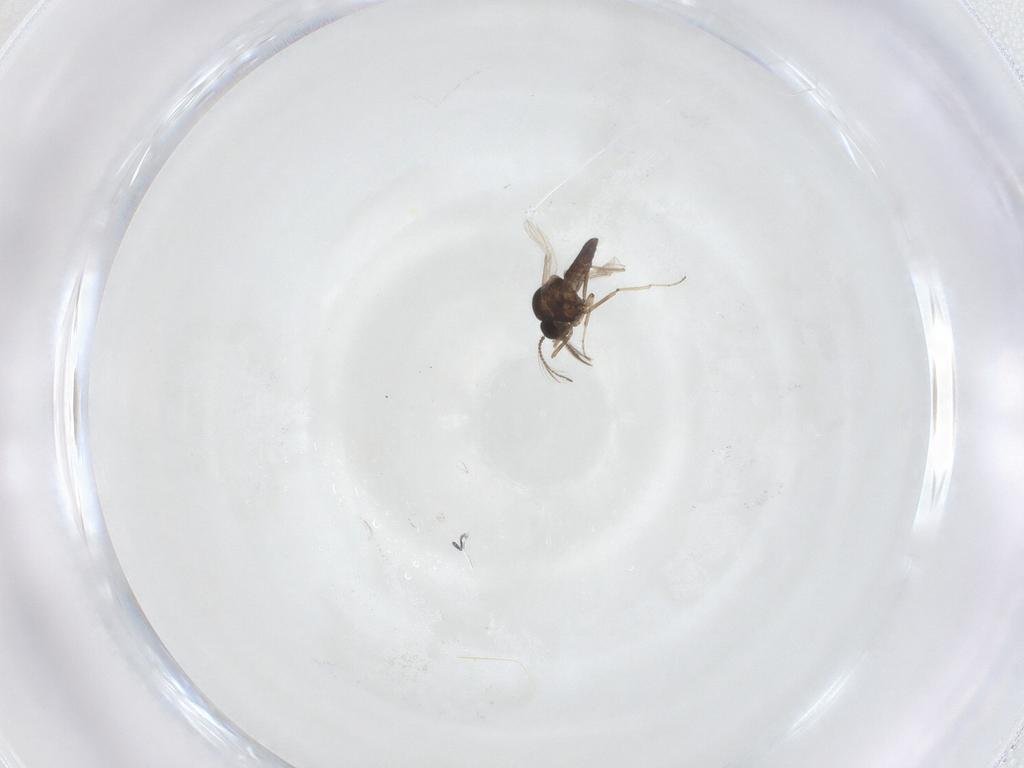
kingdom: Animalia
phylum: Arthropoda
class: Insecta
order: Diptera
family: Ceratopogonidae
